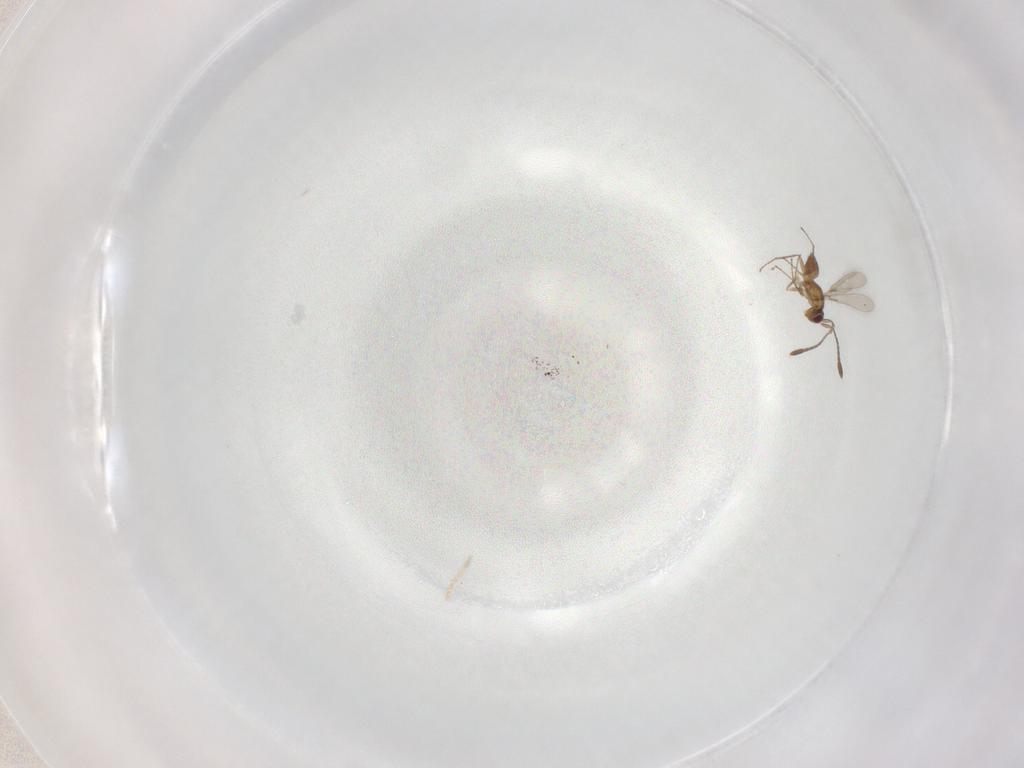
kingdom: Animalia
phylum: Arthropoda
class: Insecta
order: Hymenoptera
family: Mymaridae
